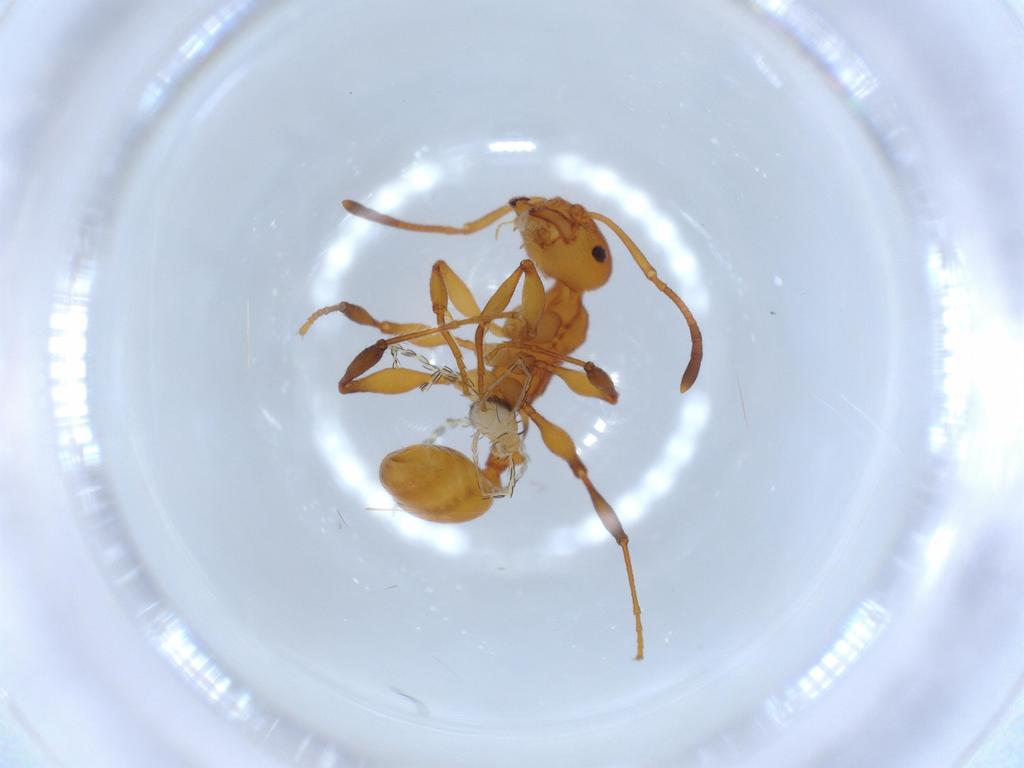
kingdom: Animalia
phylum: Arthropoda
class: Arachnida
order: Trombidiformes
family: Erythraeidae
